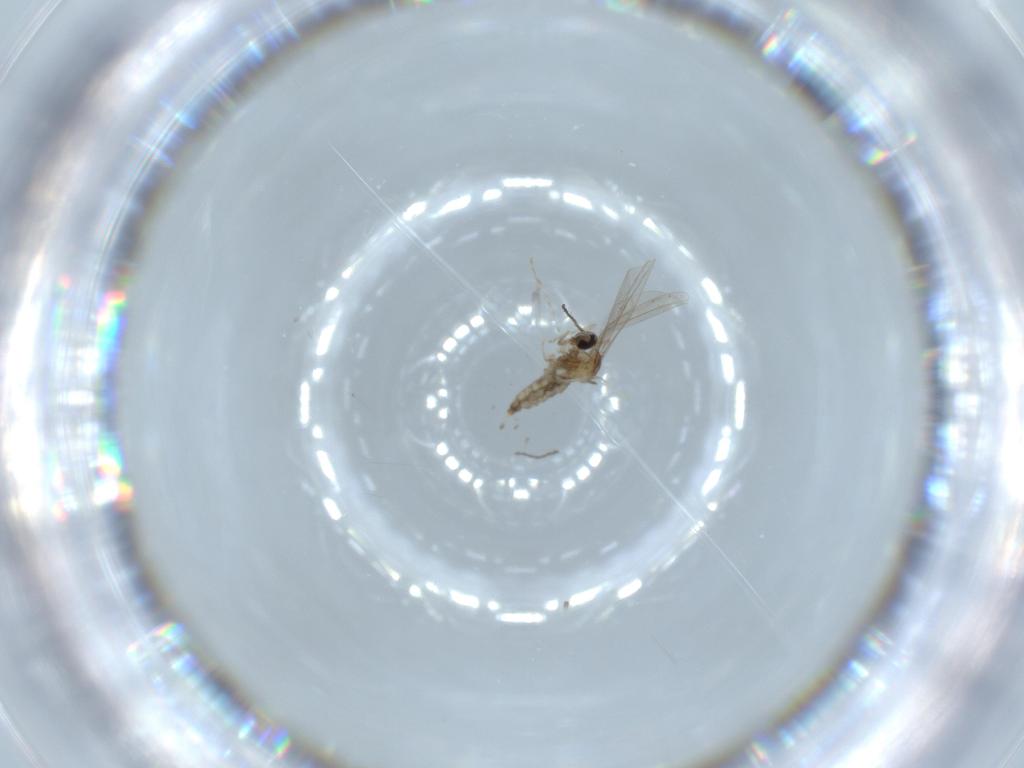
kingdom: Animalia
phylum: Arthropoda
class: Insecta
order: Diptera
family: Cecidomyiidae
